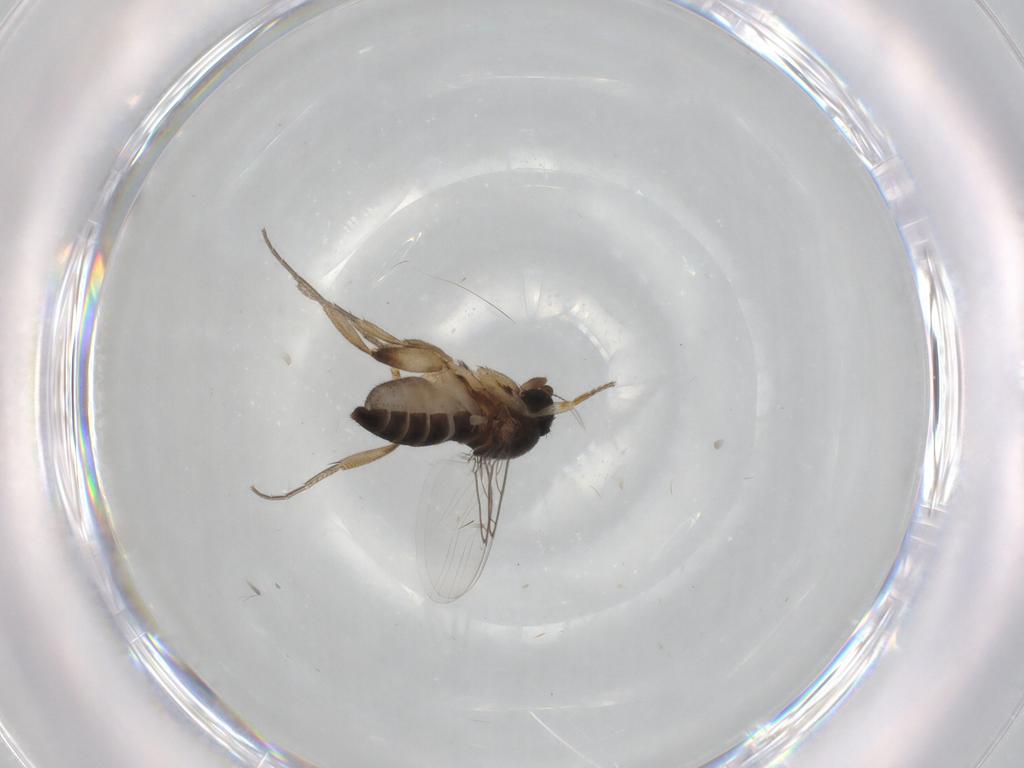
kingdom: Animalia
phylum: Arthropoda
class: Insecta
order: Diptera
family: Phoridae
